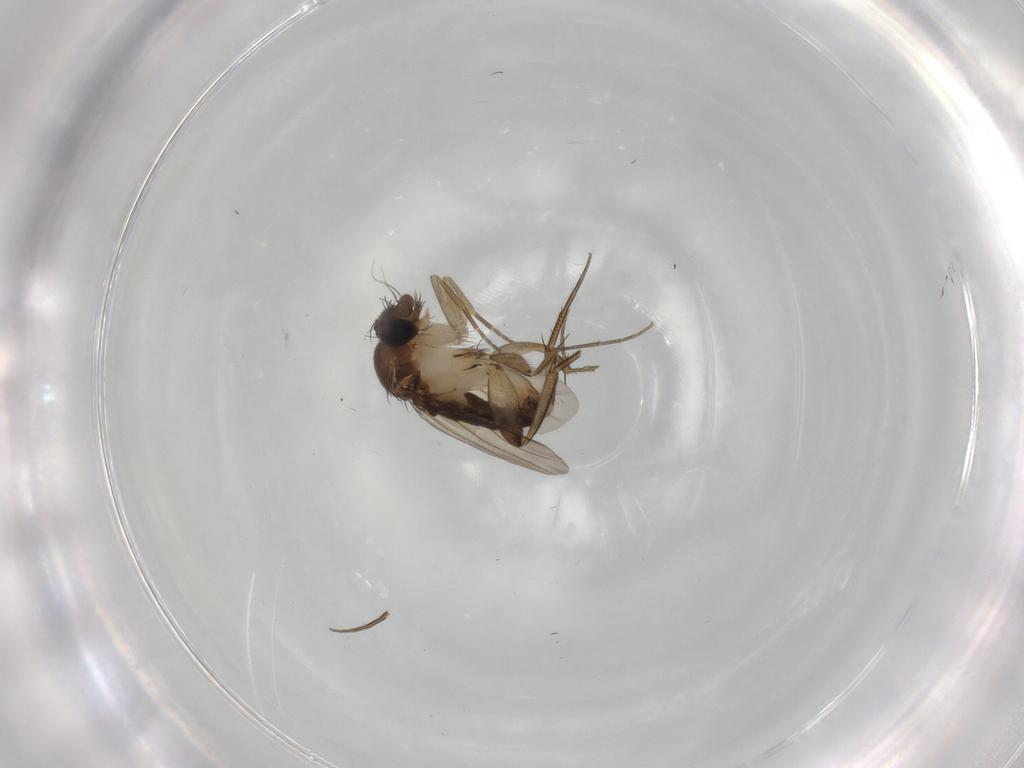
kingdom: Animalia
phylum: Arthropoda
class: Insecta
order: Diptera
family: Phoridae
